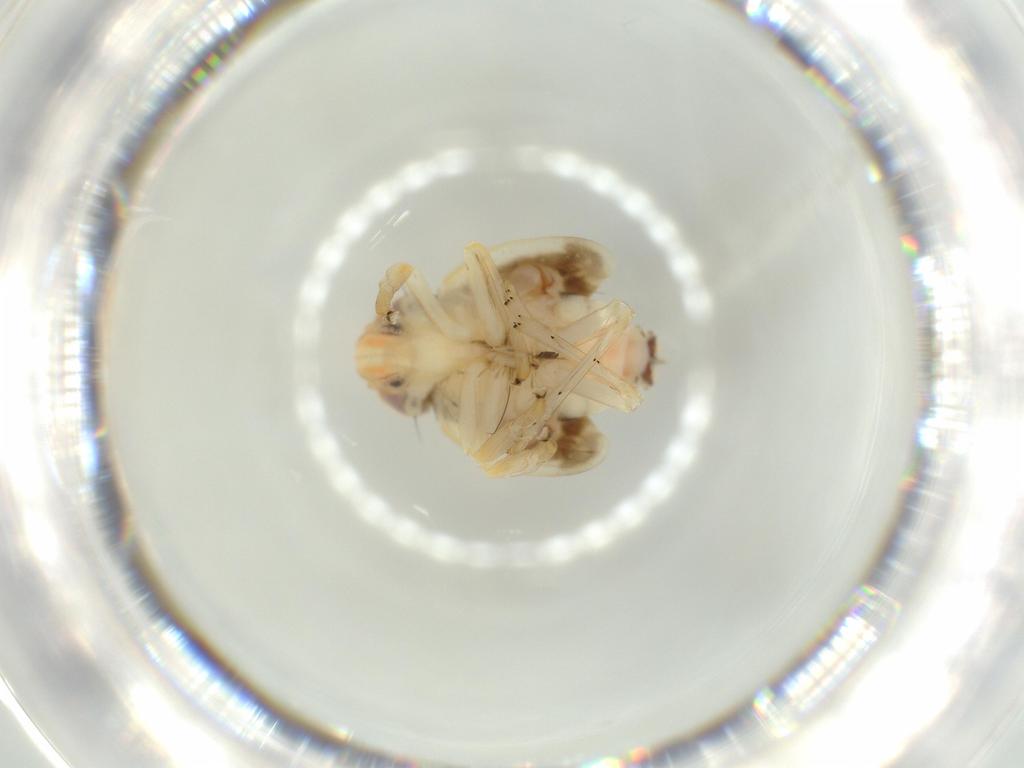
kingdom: Animalia
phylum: Arthropoda
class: Insecta
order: Hemiptera
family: Nogodinidae
